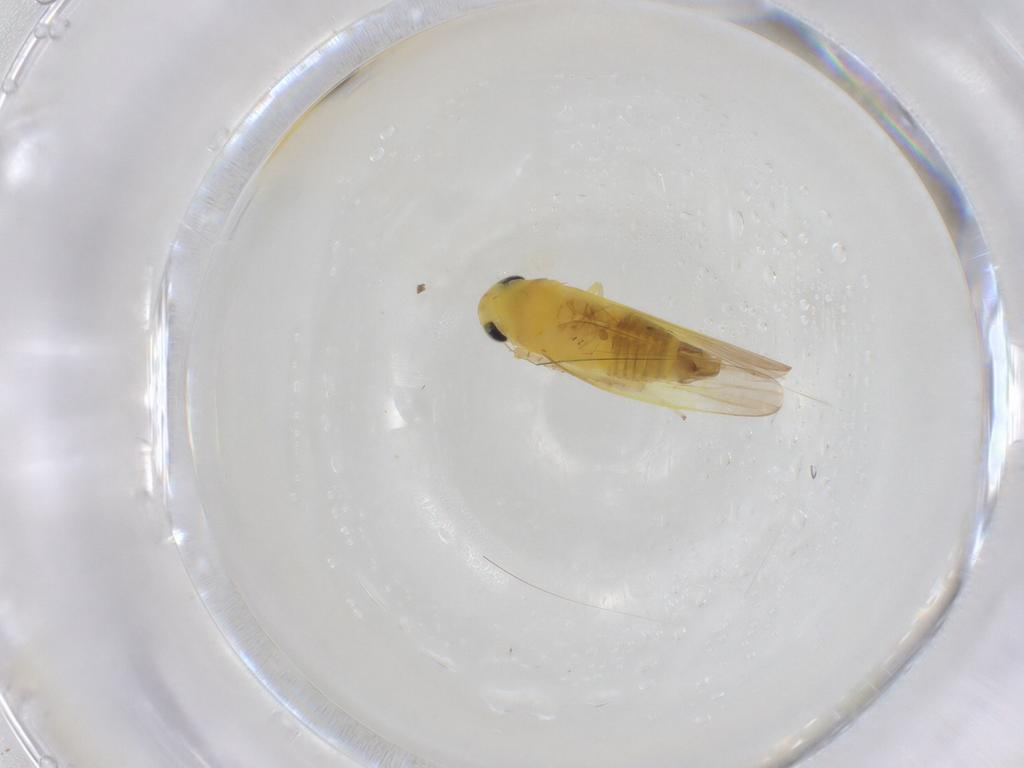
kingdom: Animalia
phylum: Arthropoda
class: Insecta
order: Hemiptera
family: Cicadellidae
